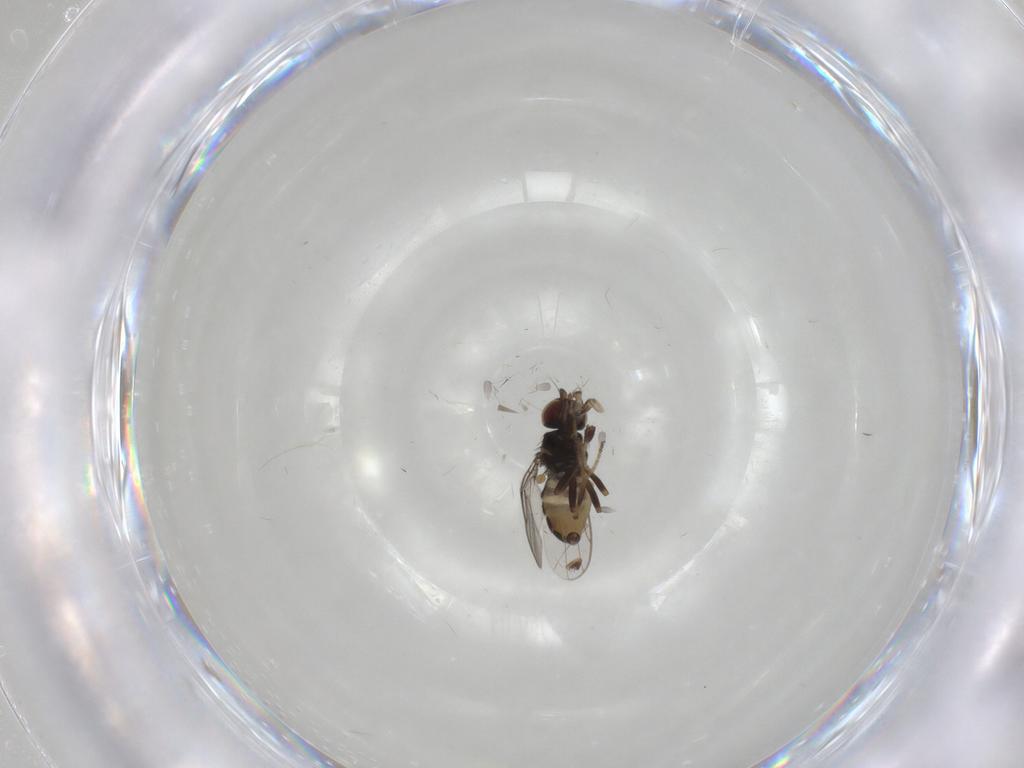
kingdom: Animalia
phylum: Arthropoda
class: Insecta
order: Diptera
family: Chloropidae
